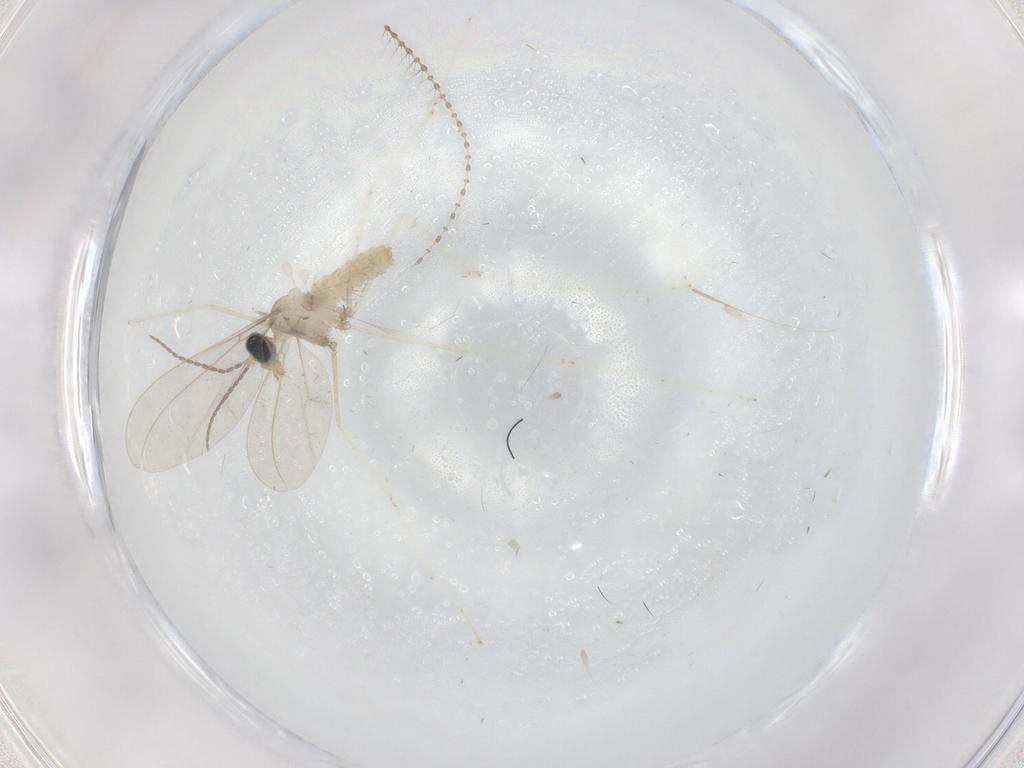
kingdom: Animalia
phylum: Arthropoda
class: Insecta
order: Diptera
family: Cecidomyiidae
